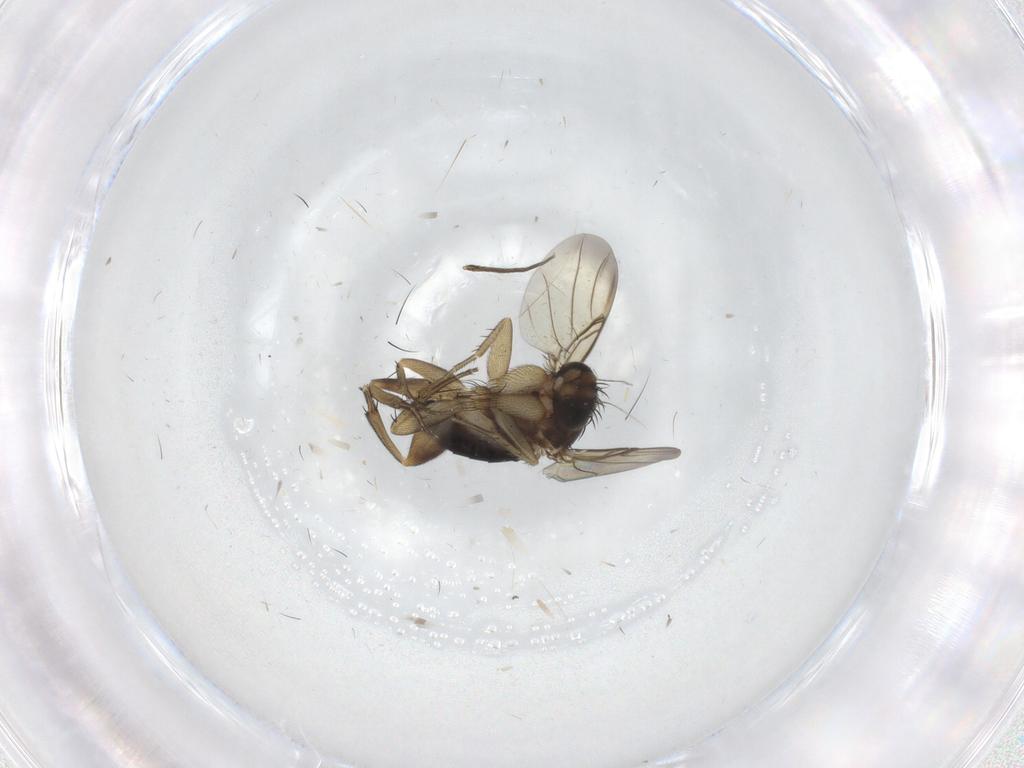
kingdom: Animalia
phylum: Arthropoda
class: Insecta
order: Diptera
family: Phoridae
